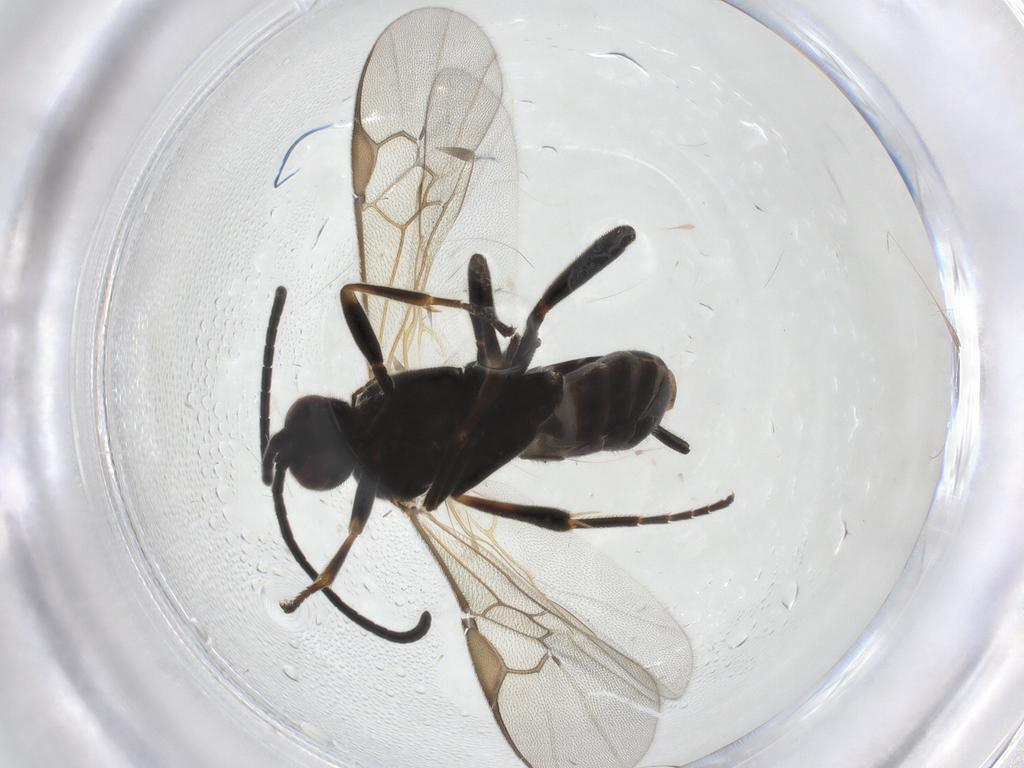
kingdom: Animalia
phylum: Arthropoda
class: Insecta
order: Hymenoptera
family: Braconidae
